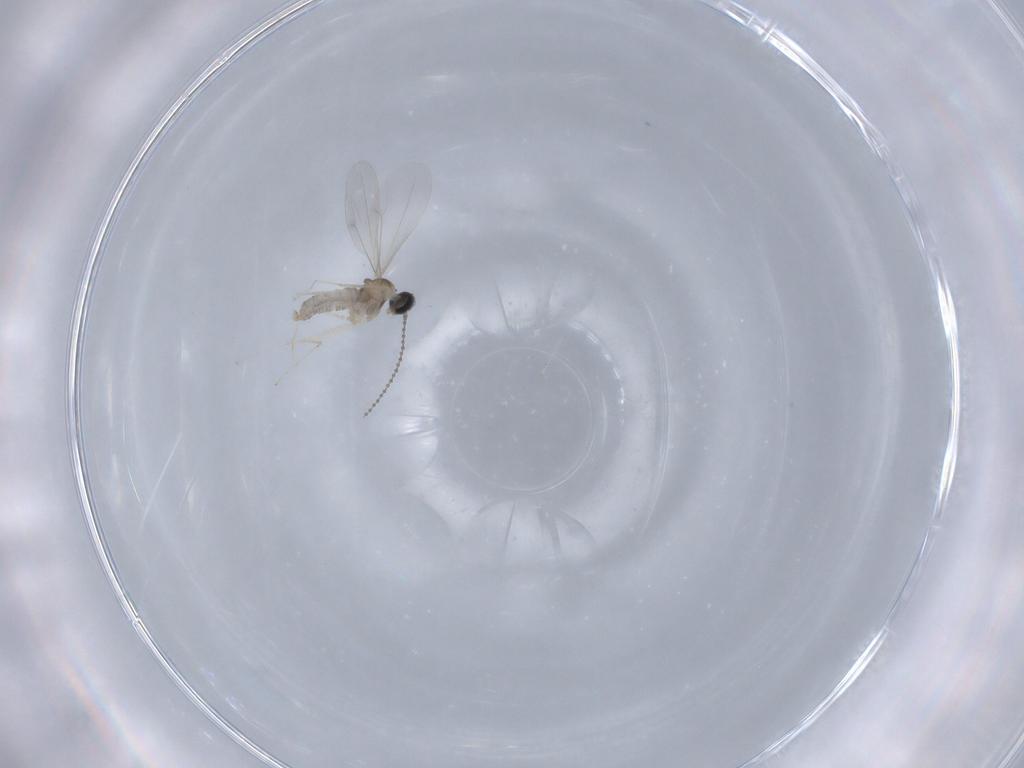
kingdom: Animalia
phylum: Arthropoda
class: Insecta
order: Diptera
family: Cecidomyiidae
